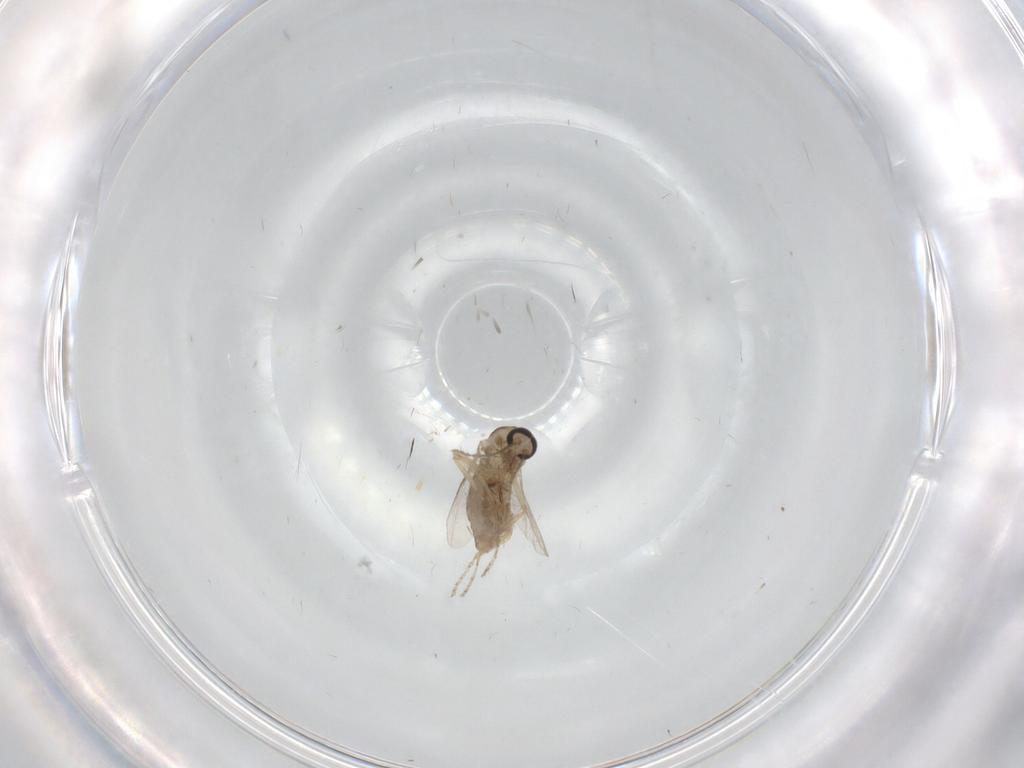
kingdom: Animalia
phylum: Arthropoda
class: Insecta
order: Diptera
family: Ceratopogonidae
